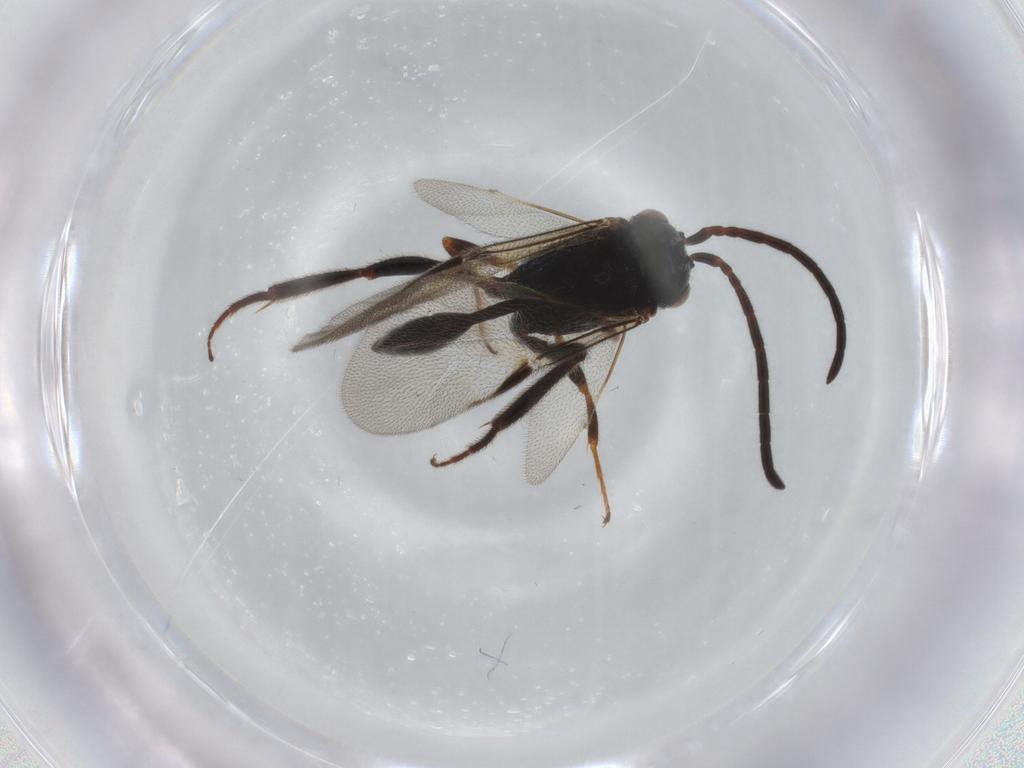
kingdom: Animalia
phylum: Arthropoda
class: Insecta
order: Hymenoptera
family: Evaniidae
